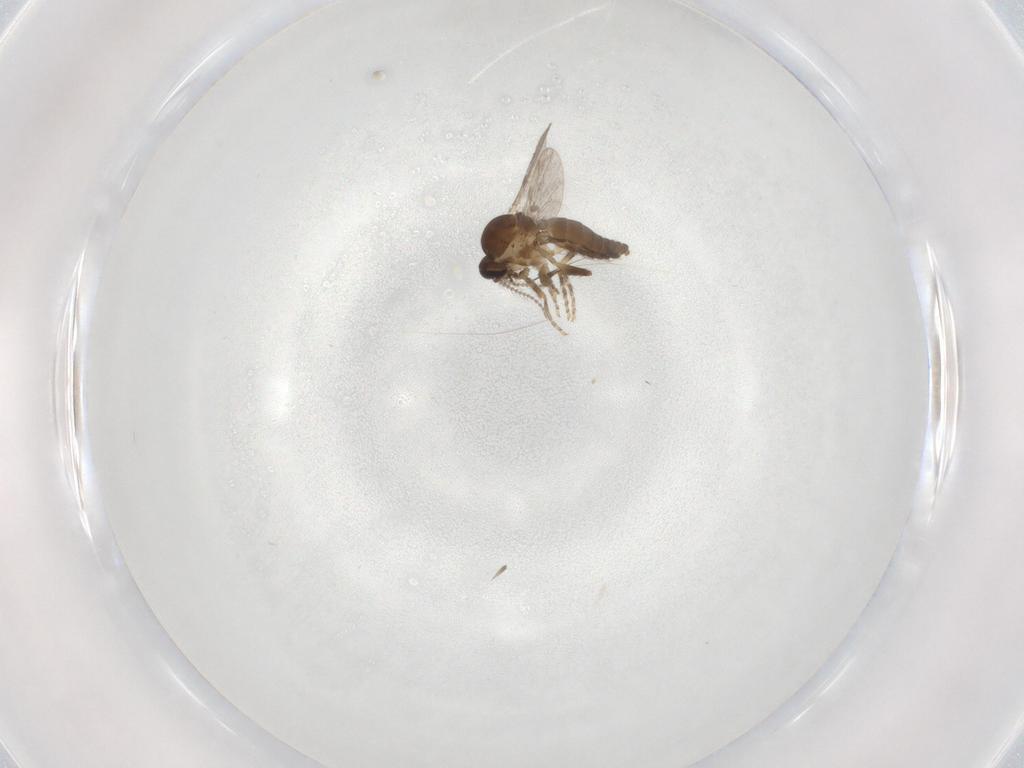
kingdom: Animalia
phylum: Arthropoda
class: Insecta
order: Diptera
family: Ceratopogonidae
